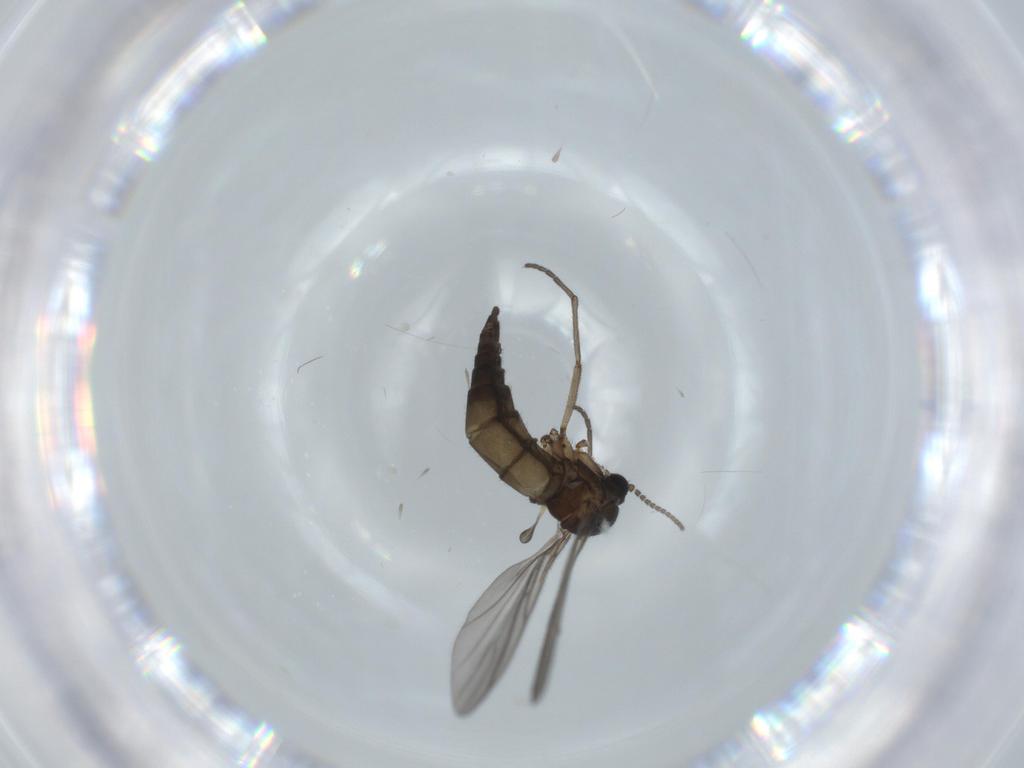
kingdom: Animalia
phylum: Arthropoda
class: Insecta
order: Diptera
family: Sciaridae
